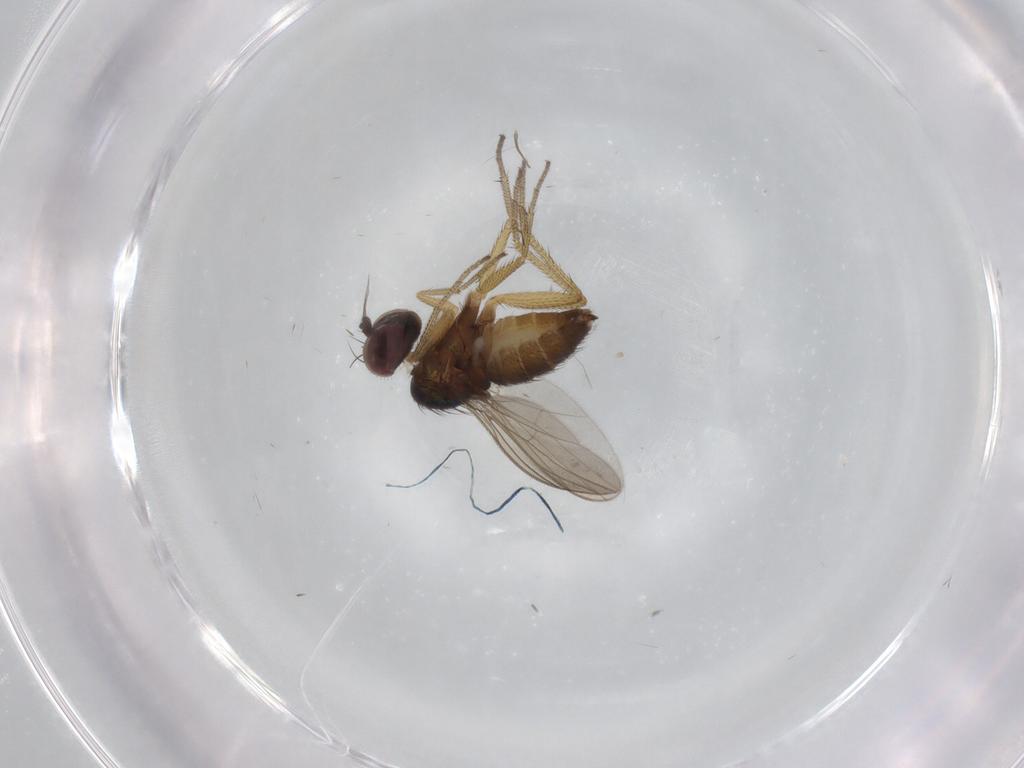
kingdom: Animalia
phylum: Arthropoda
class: Insecta
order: Diptera
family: Dolichopodidae
